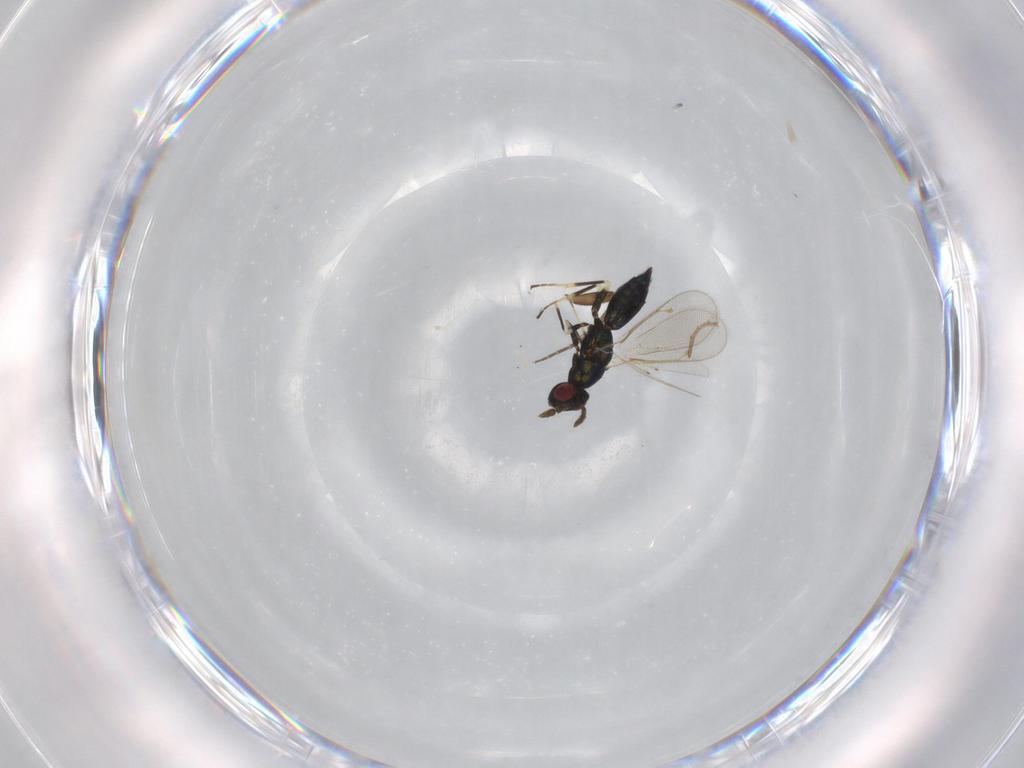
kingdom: Animalia
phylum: Arthropoda
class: Insecta
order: Hymenoptera
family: Eulophidae
